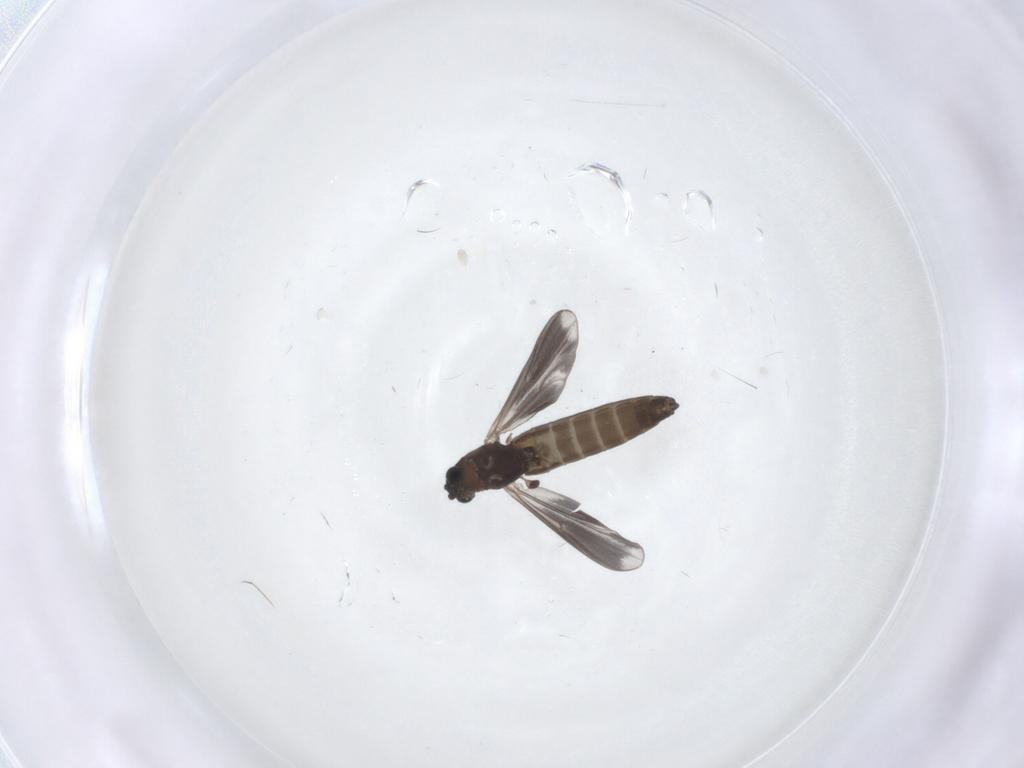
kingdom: Animalia
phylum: Arthropoda
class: Insecta
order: Diptera
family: Chironomidae
